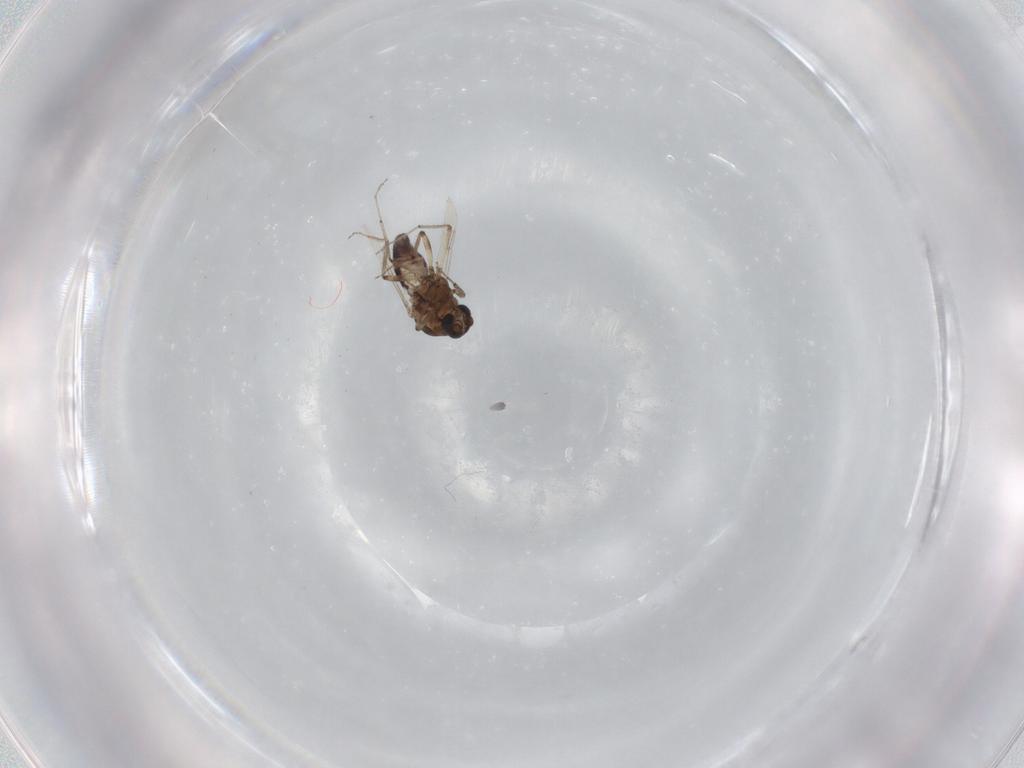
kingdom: Animalia
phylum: Arthropoda
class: Insecta
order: Diptera
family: Ceratopogonidae
